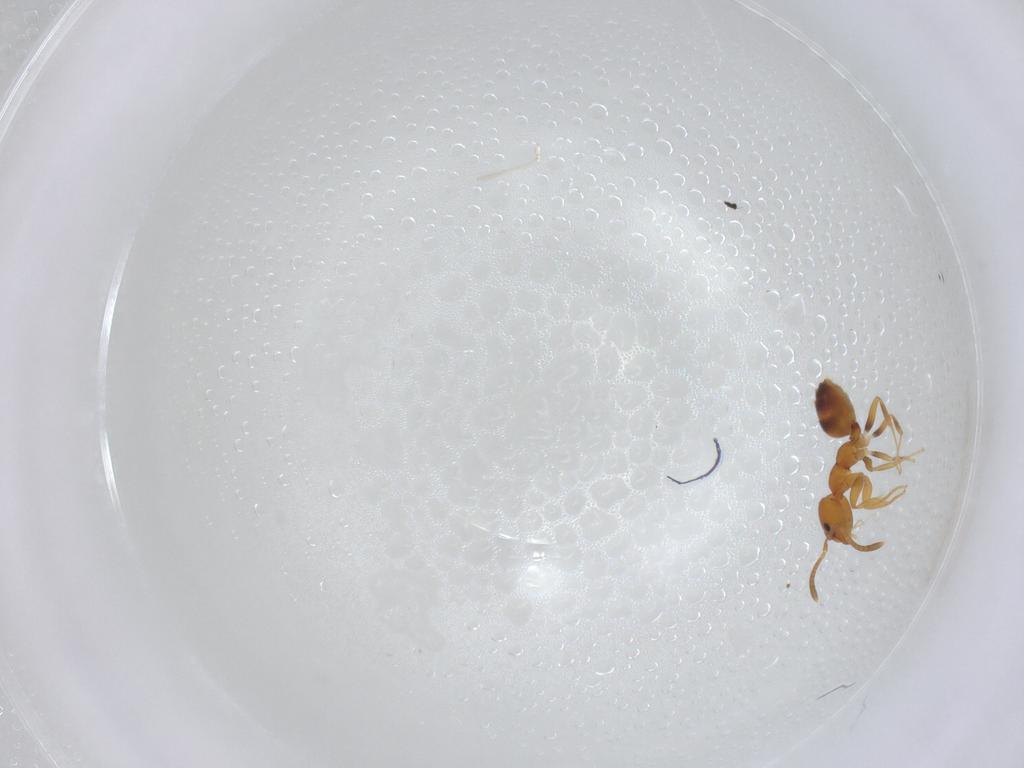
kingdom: Animalia
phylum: Arthropoda
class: Insecta
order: Hymenoptera
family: Formicidae
